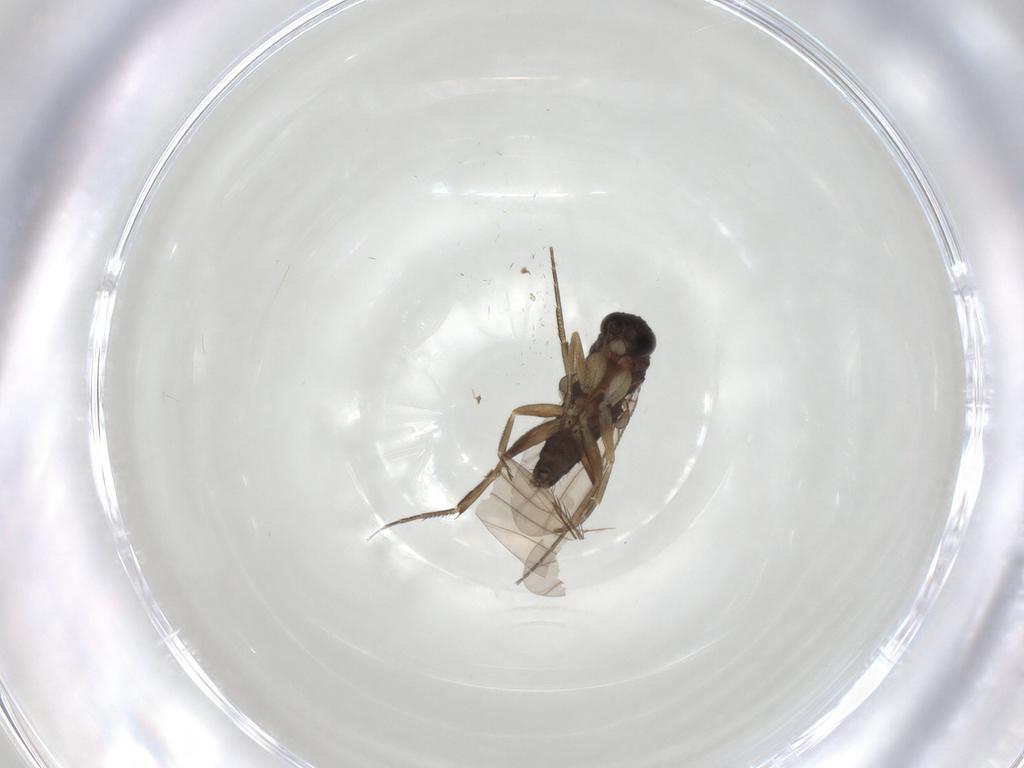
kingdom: Animalia
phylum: Arthropoda
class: Insecta
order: Diptera
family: Phoridae
